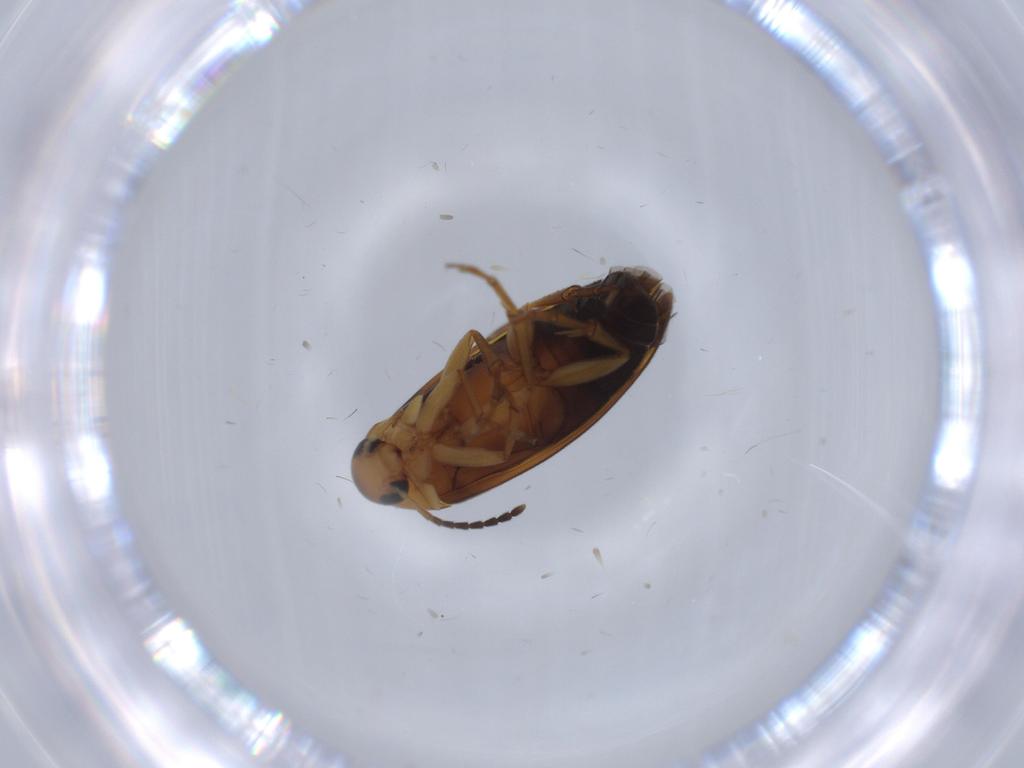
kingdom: Animalia
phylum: Arthropoda
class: Insecta
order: Coleoptera
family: Scraptiidae
